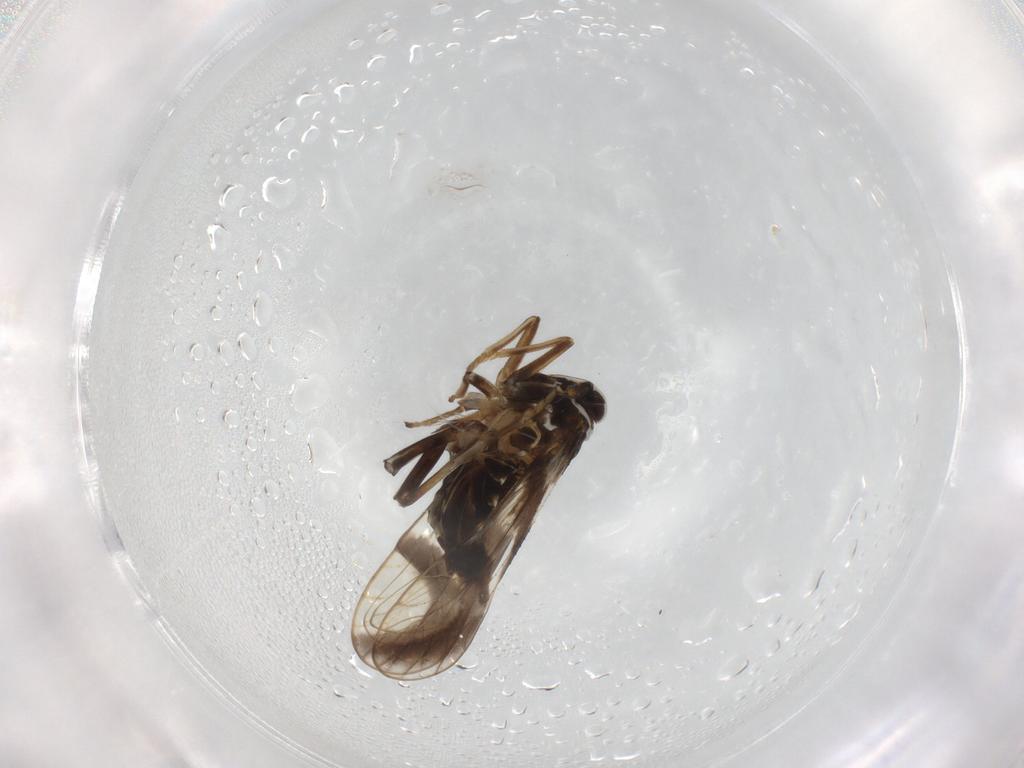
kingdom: Animalia
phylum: Arthropoda
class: Insecta
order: Hemiptera
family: Delphacidae
